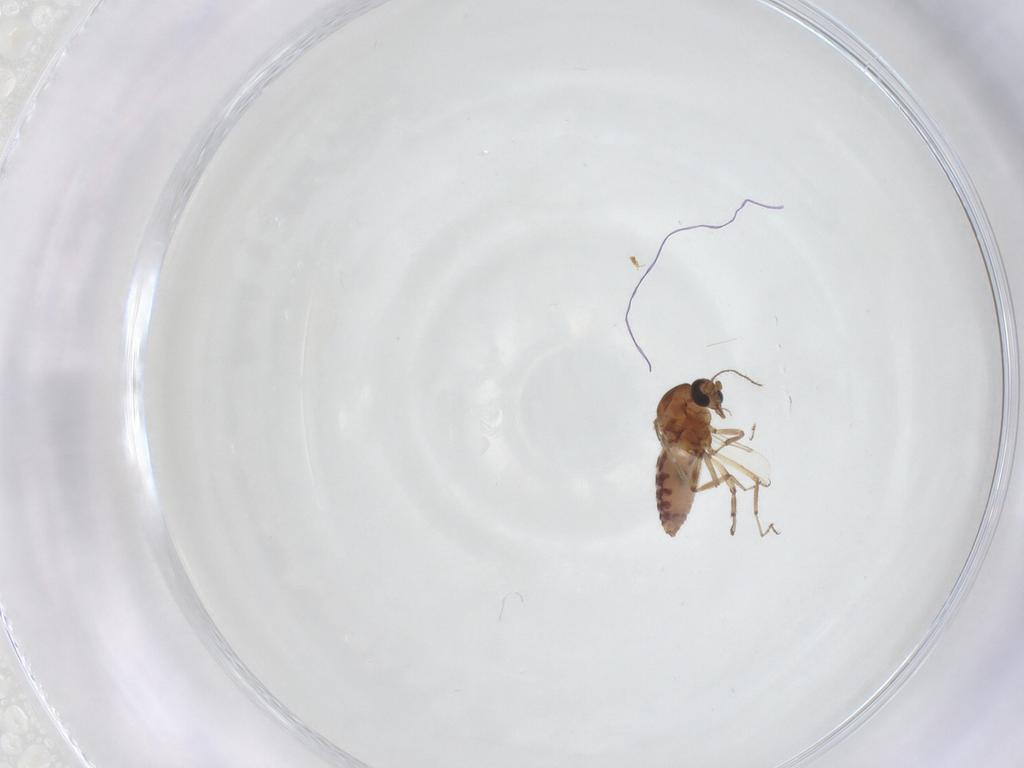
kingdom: Animalia
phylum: Arthropoda
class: Insecta
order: Diptera
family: Ceratopogonidae
